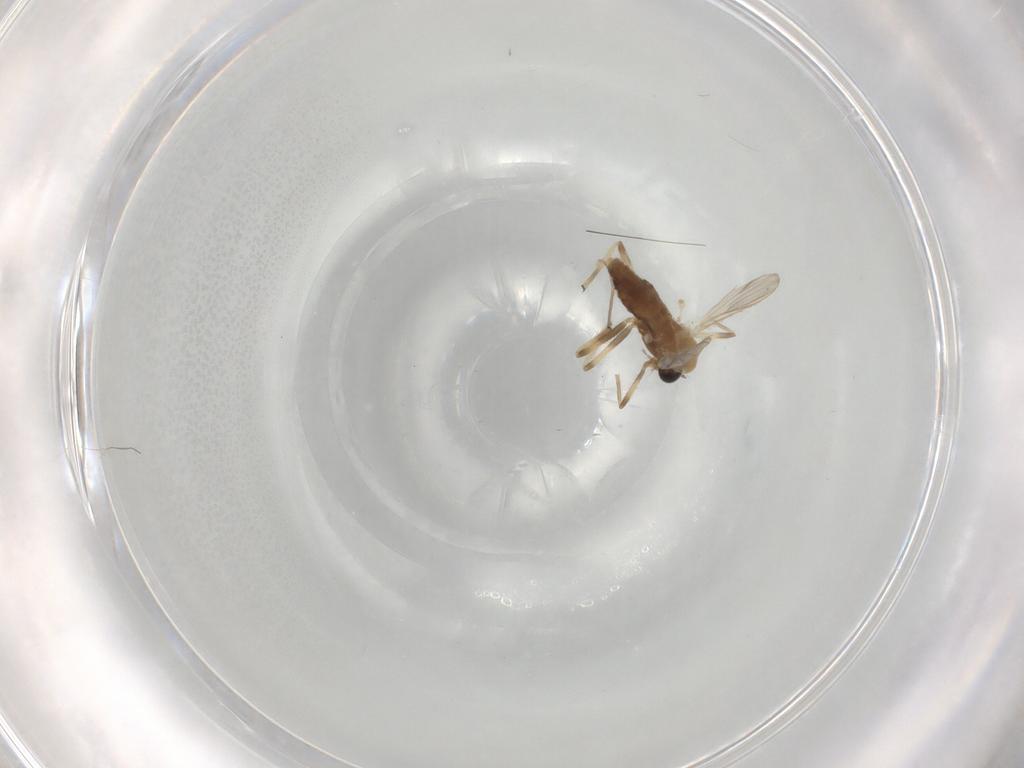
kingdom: Animalia
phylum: Arthropoda
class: Insecta
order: Diptera
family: Chironomidae
